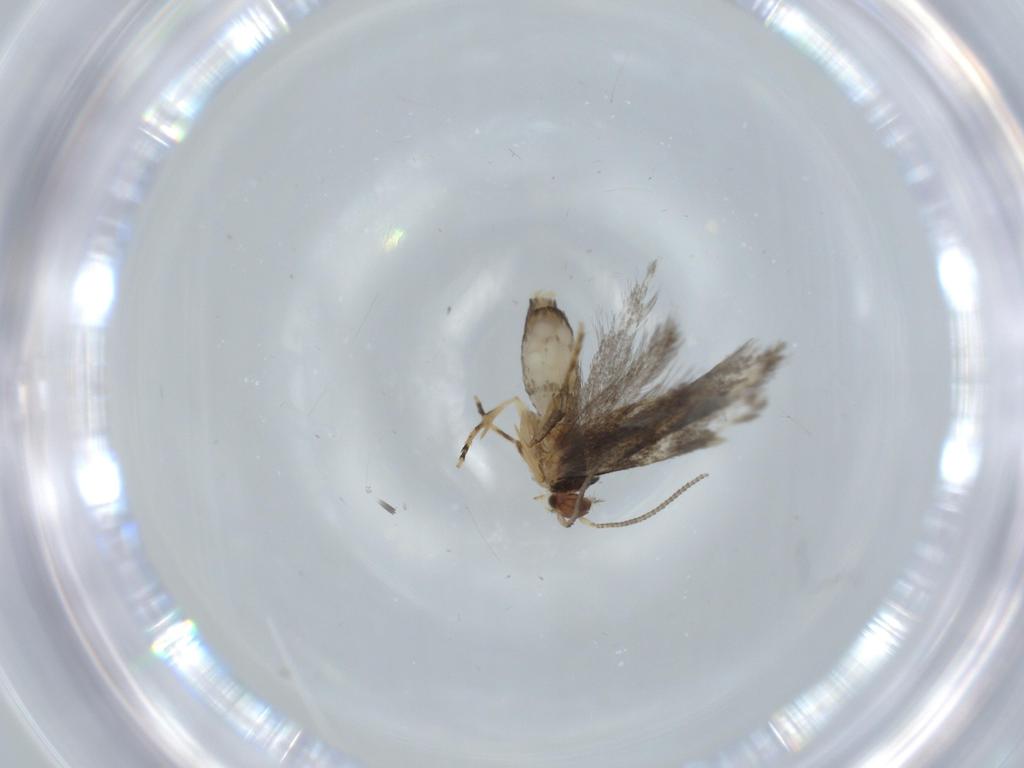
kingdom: Animalia
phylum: Arthropoda
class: Insecta
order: Lepidoptera
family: Tineidae
